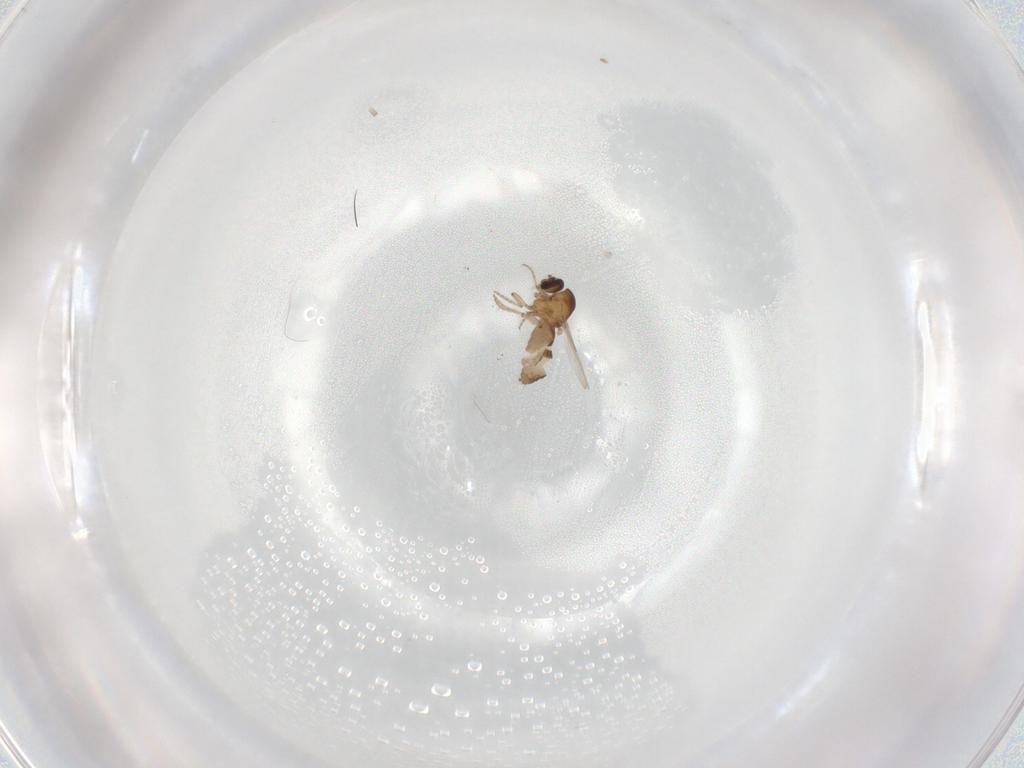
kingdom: Animalia
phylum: Arthropoda
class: Insecta
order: Diptera
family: Ceratopogonidae
